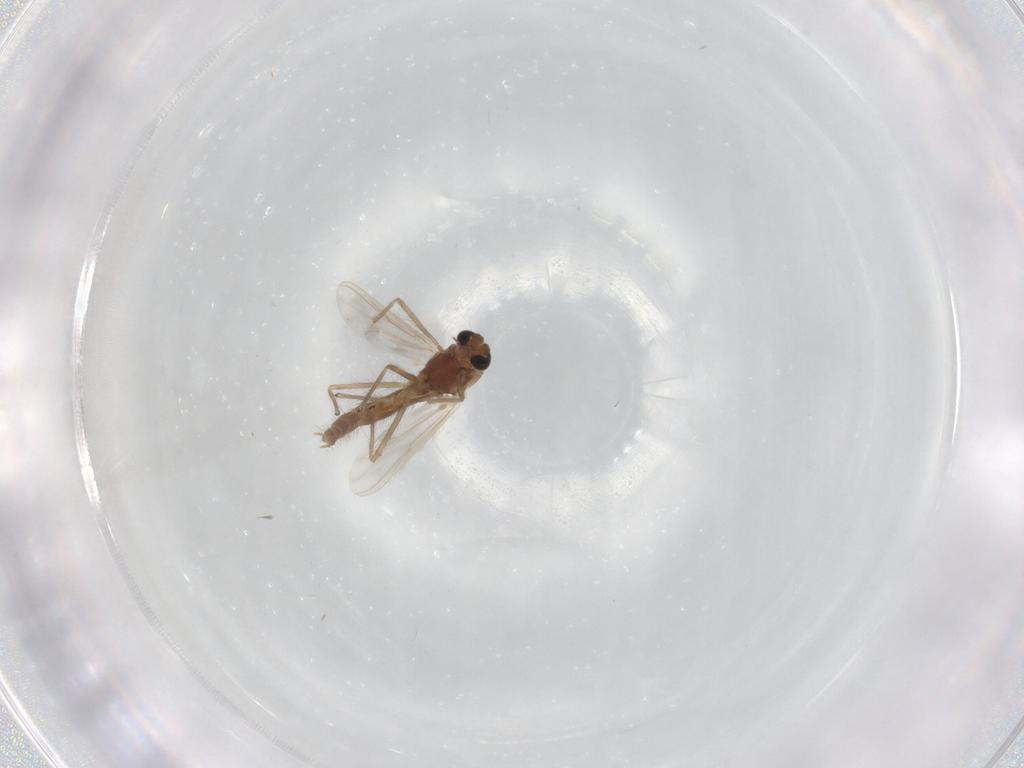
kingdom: Animalia
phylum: Arthropoda
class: Insecta
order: Diptera
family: Chironomidae
